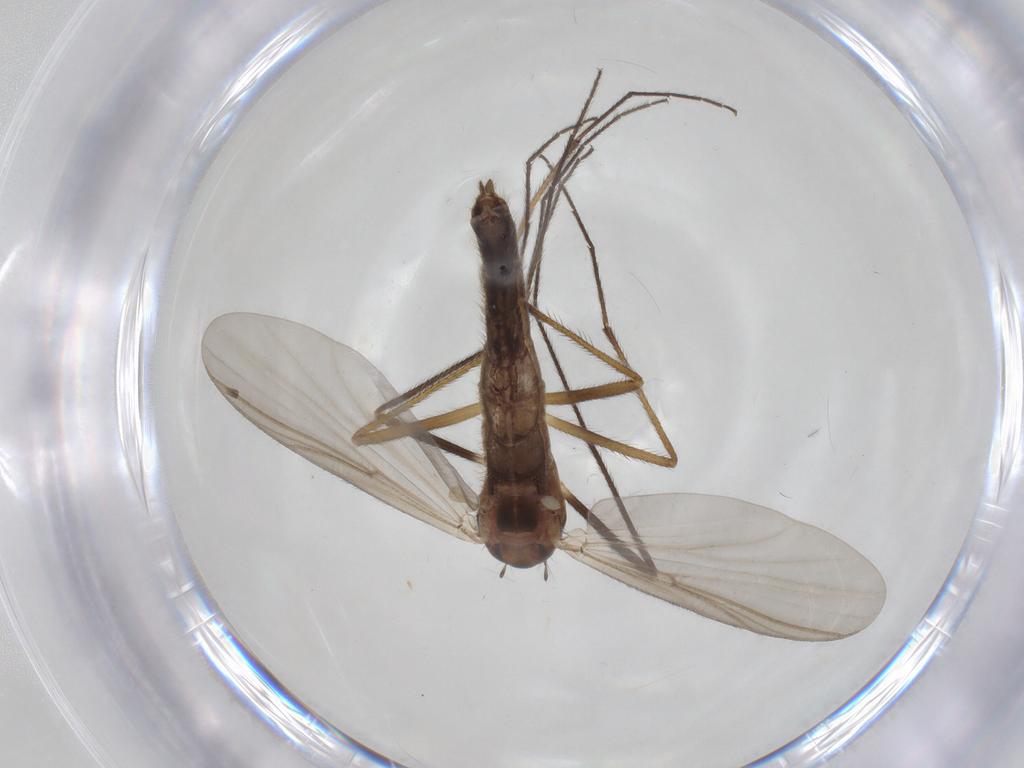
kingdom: Animalia
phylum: Arthropoda
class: Insecta
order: Diptera
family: Chironomidae
